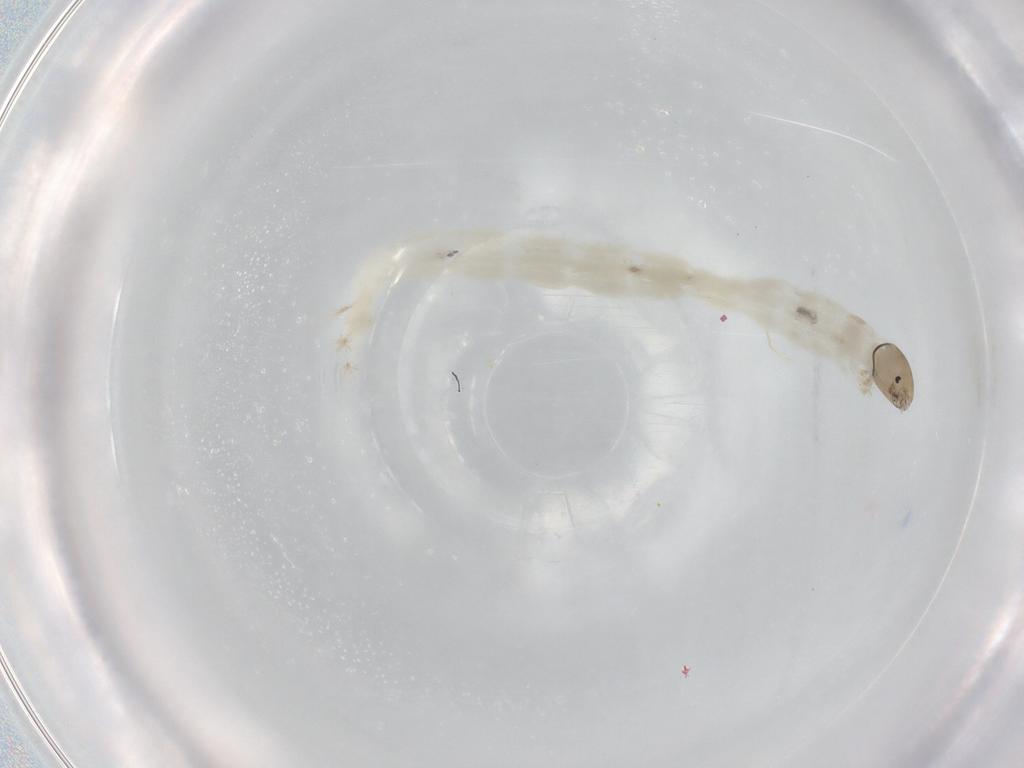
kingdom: Animalia
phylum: Arthropoda
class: Insecta
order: Diptera
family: Chironomidae
